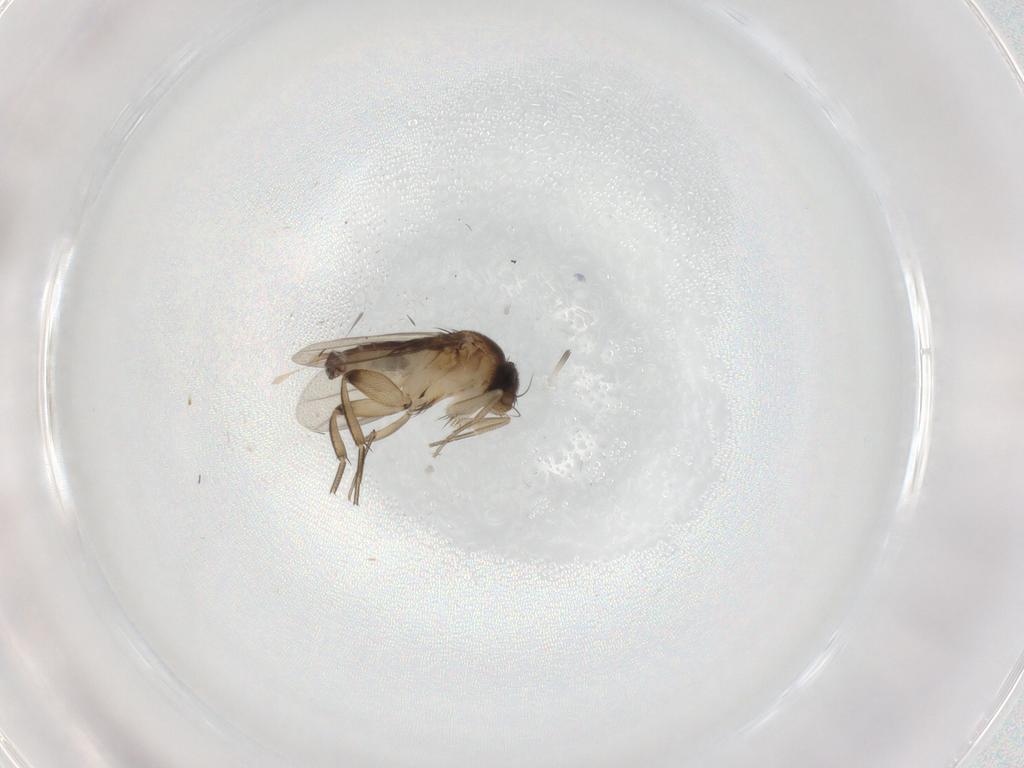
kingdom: Animalia
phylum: Arthropoda
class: Insecta
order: Diptera
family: Phoridae
